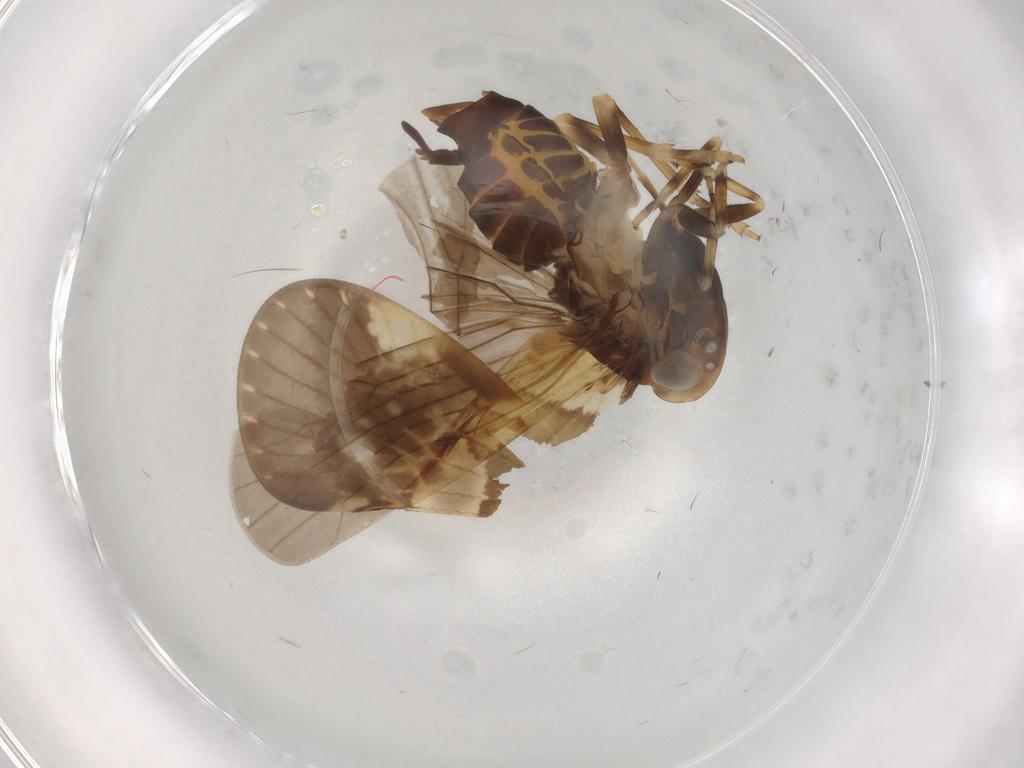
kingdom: Animalia
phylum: Arthropoda
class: Insecta
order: Hemiptera
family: Cixiidae
